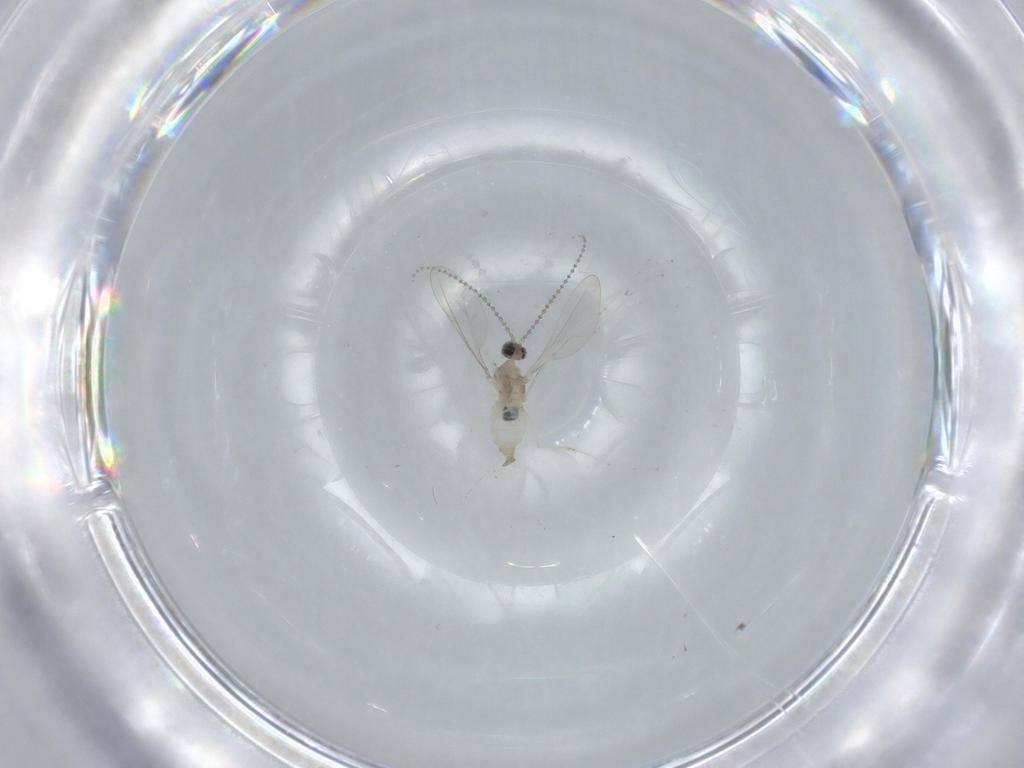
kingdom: Animalia
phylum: Arthropoda
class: Insecta
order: Diptera
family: Cecidomyiidae
